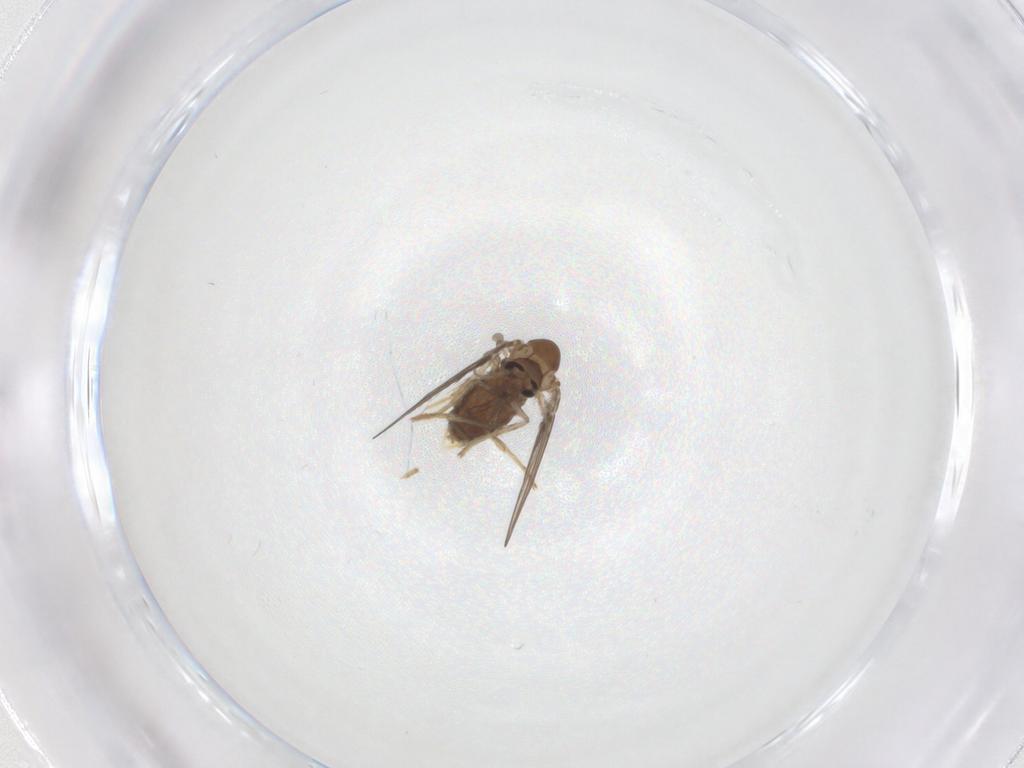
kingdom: Animalia
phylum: Arthropoda
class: Insecta
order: Diptera
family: Psychodidae
